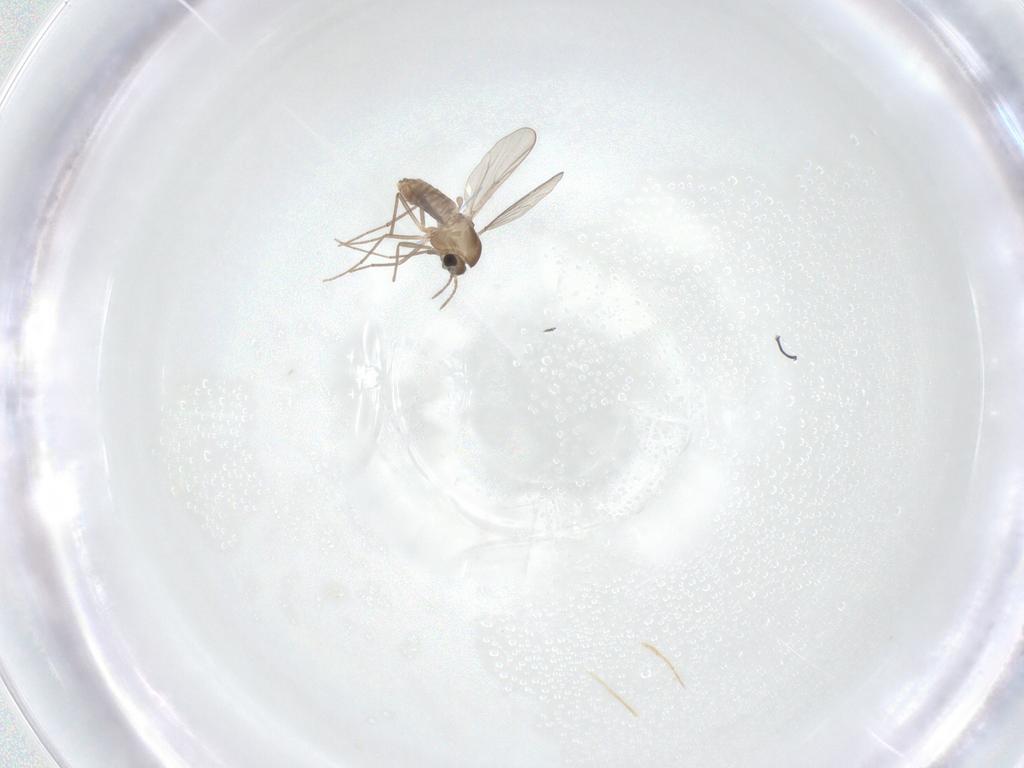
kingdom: Animalia
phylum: Arthropoda
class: Insecta
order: Diptera
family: Chironomidae
